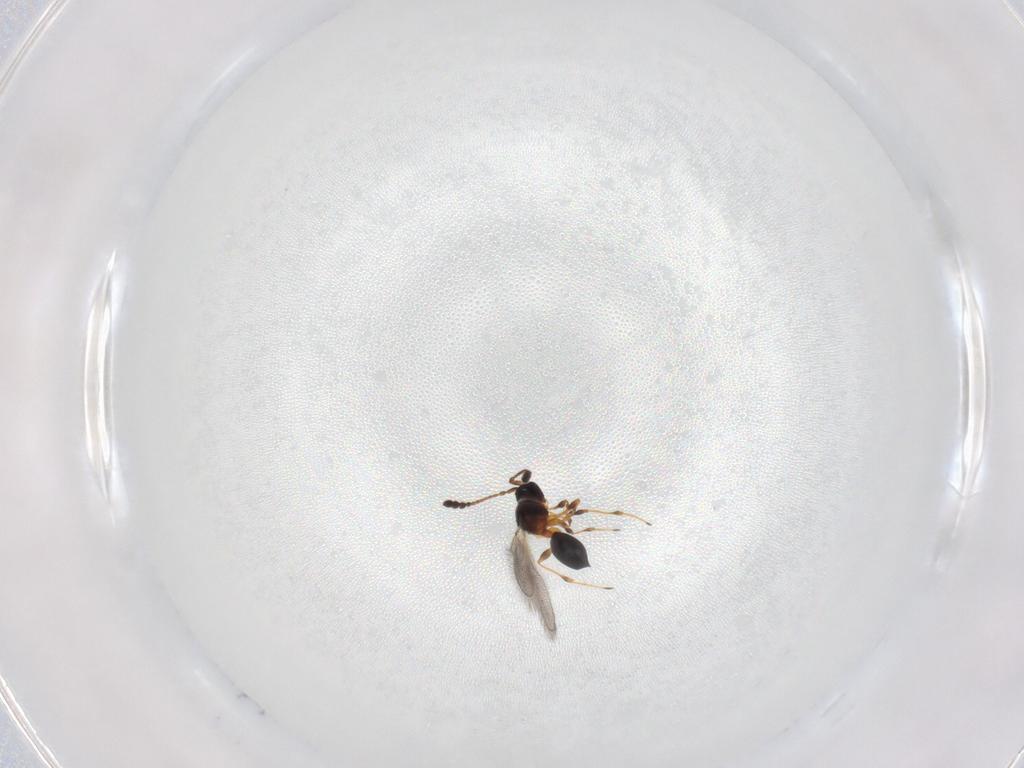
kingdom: Animalia
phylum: Arthropoda
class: Insecta
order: Hymenoptera
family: Diapriidae
